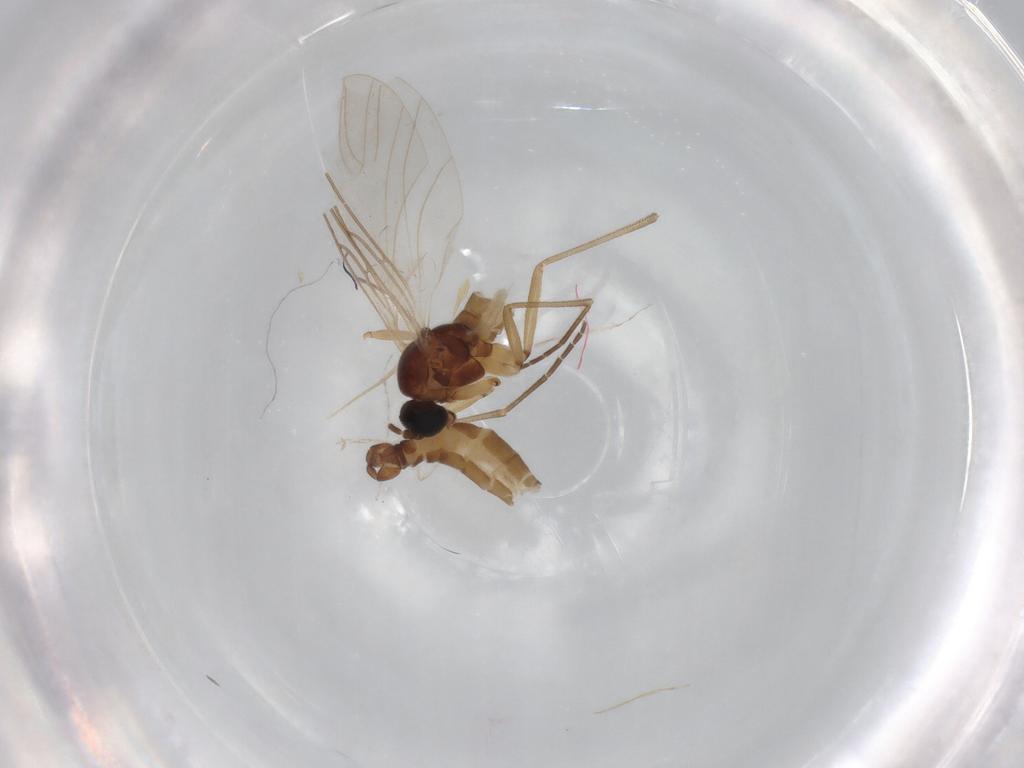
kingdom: Animalia
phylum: Arthropoda
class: Insecta
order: Diptera
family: Sciaridae
